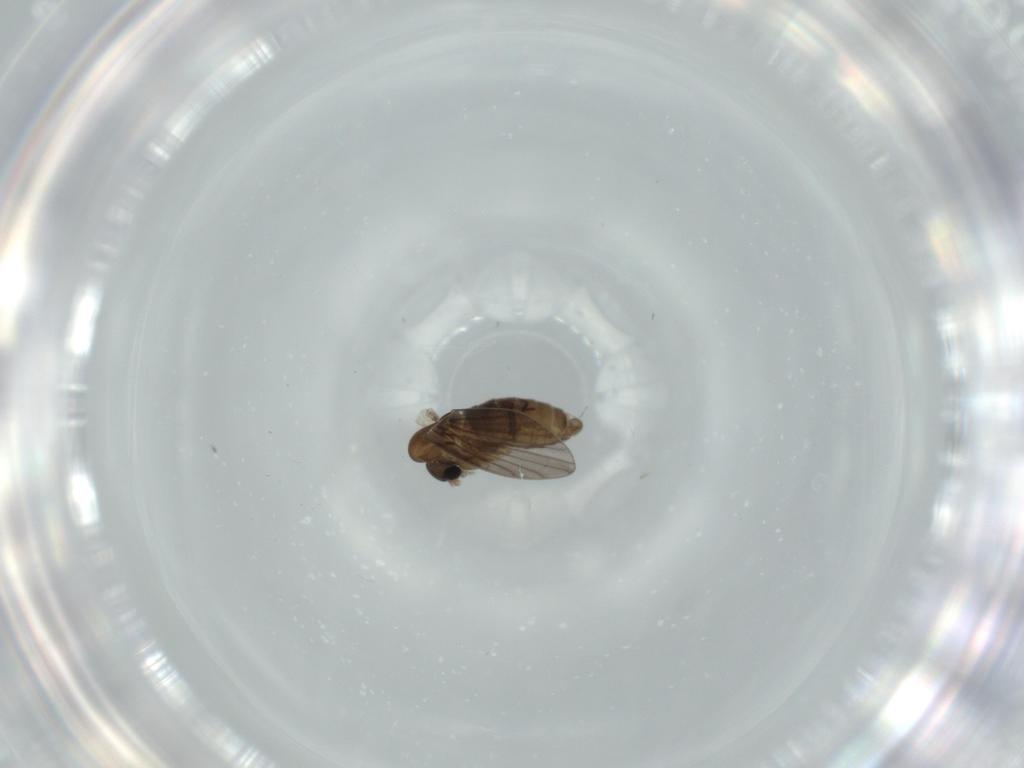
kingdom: Animalia
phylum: Arthropoda
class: Insecta
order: Diptera
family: Psychodidae
